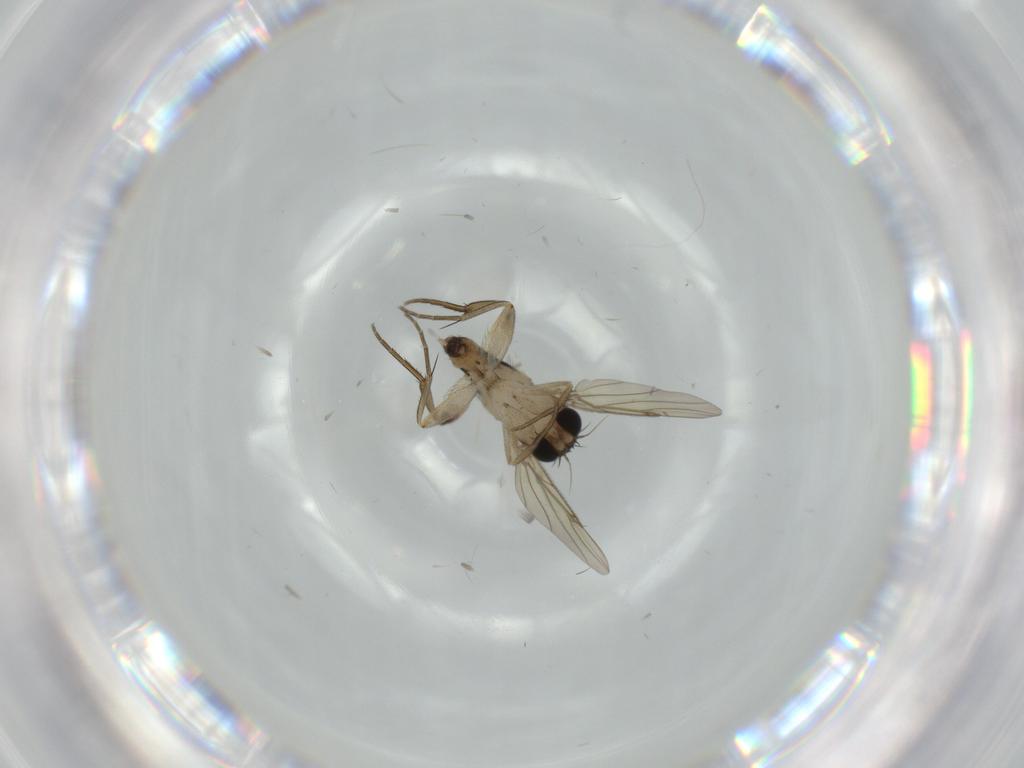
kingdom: Animalia
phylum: Arthropoda
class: Insecta
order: Diptera
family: Phoridae
